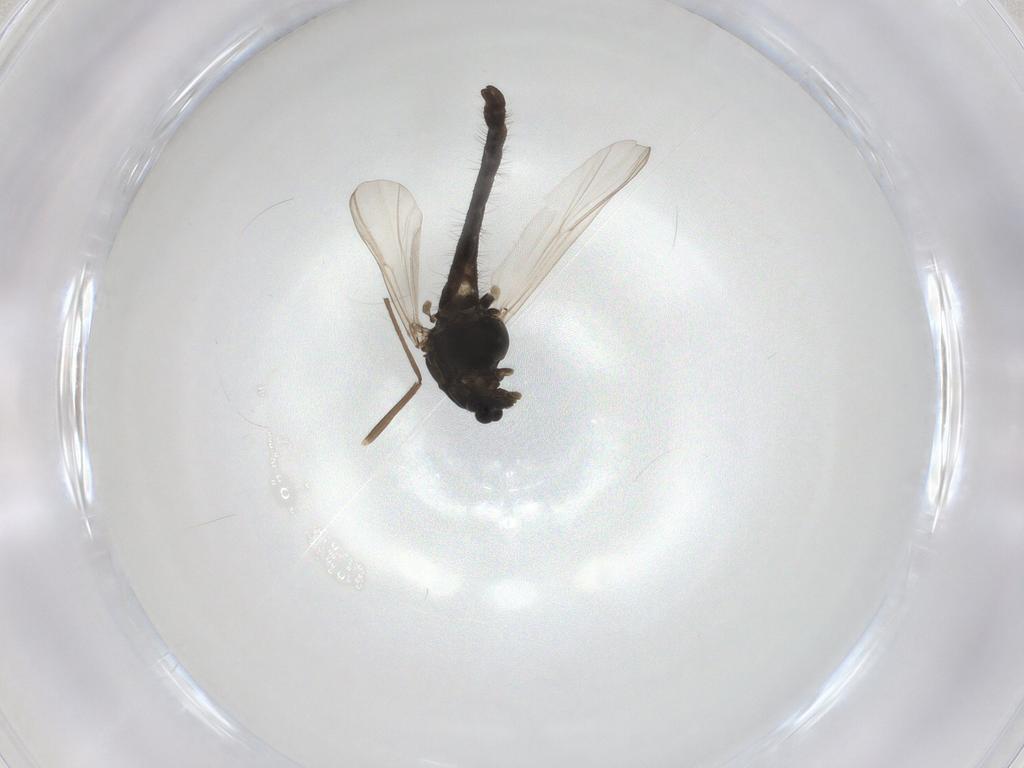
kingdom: Animalia
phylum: Arthropoda
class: Insecta
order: Diptera
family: Chironomidae
